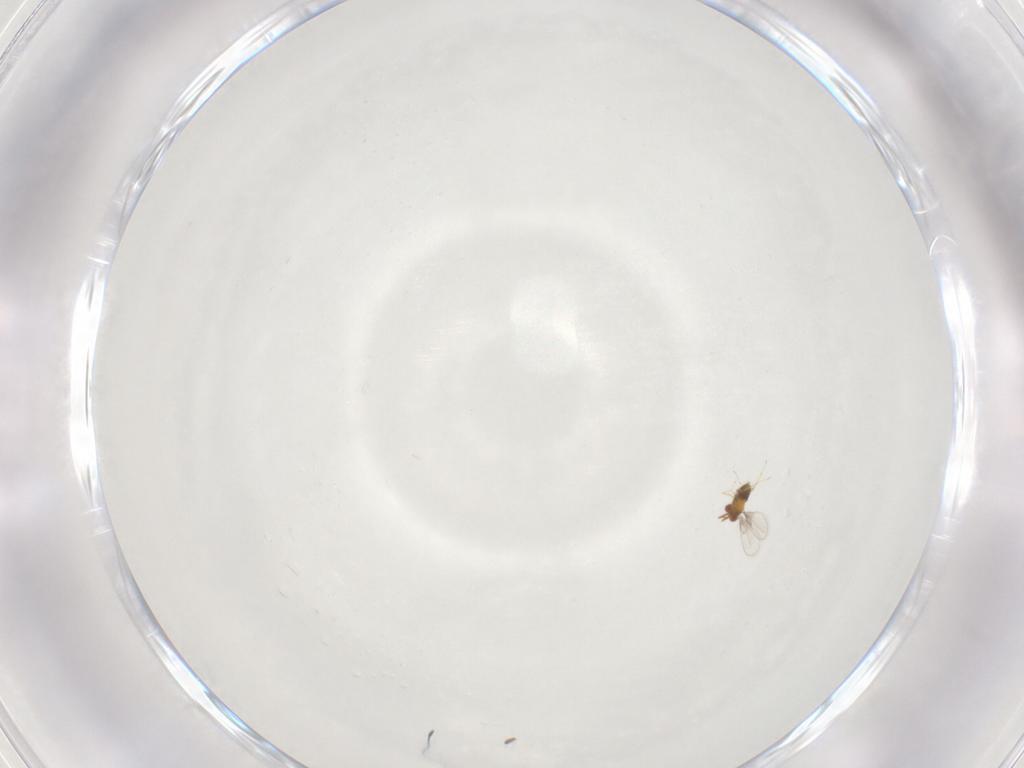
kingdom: Animalia
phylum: Arthropoda
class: Insecta
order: Hymenoptera
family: Trichogrammatidae
